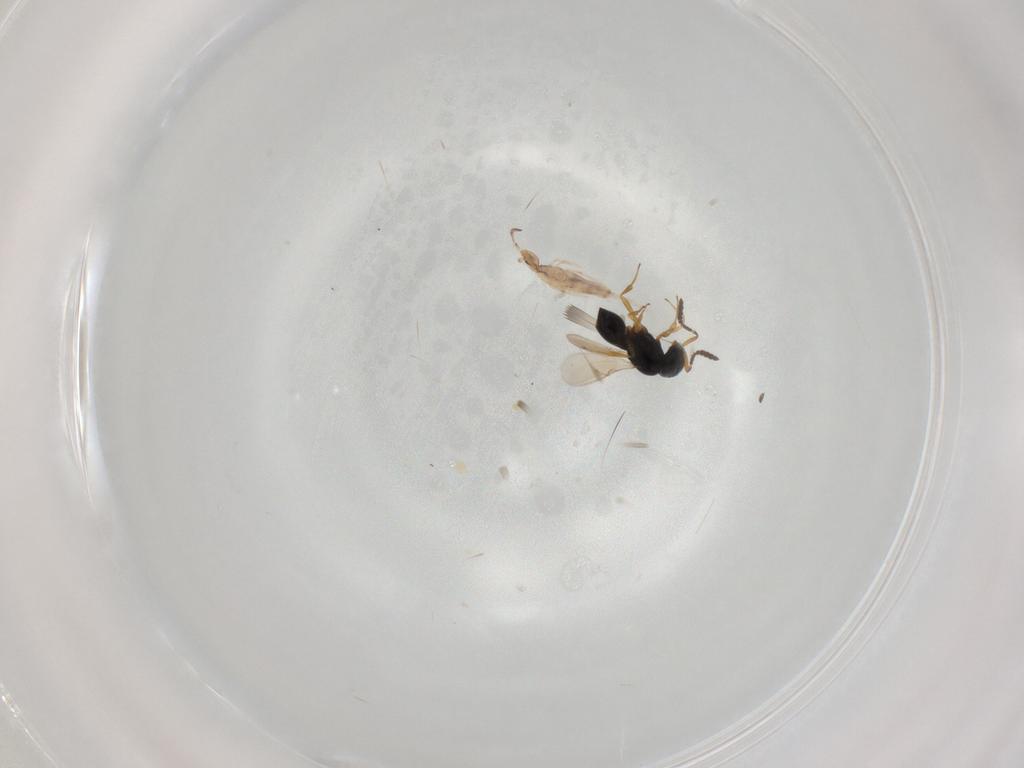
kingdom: Animalia
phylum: Arthropoda
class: Insecta
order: Hymenoptera
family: Scelionidae
